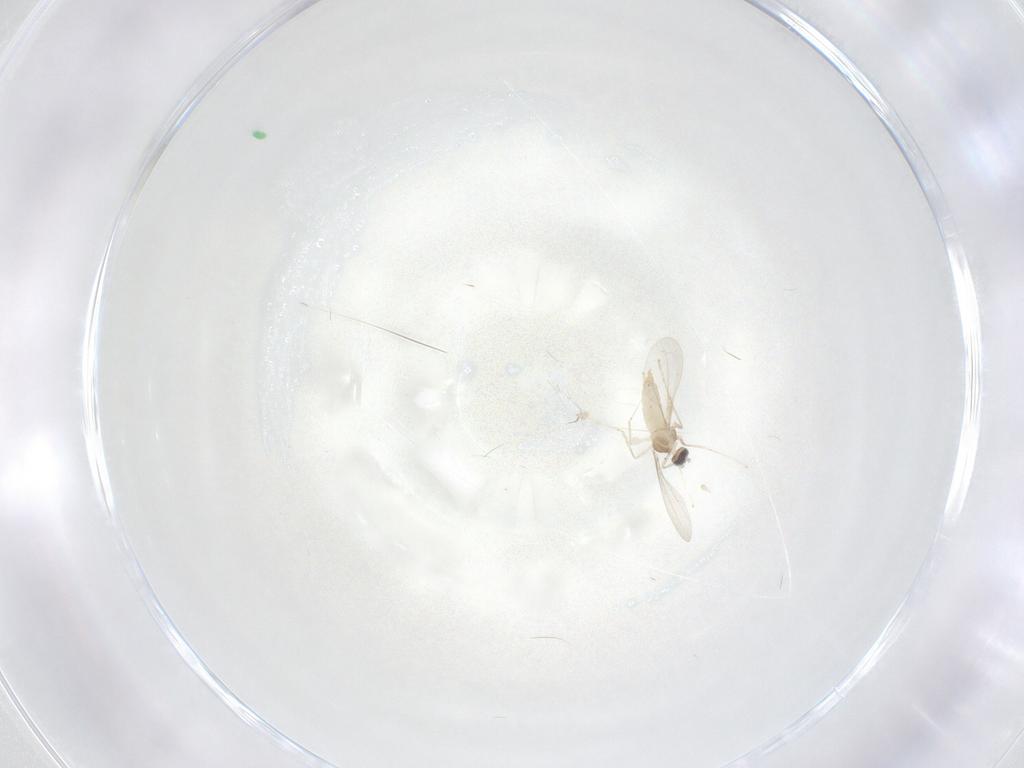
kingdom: Animalia
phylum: Arthropoda
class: Insecta
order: Diptera
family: Cecidomyiidae
